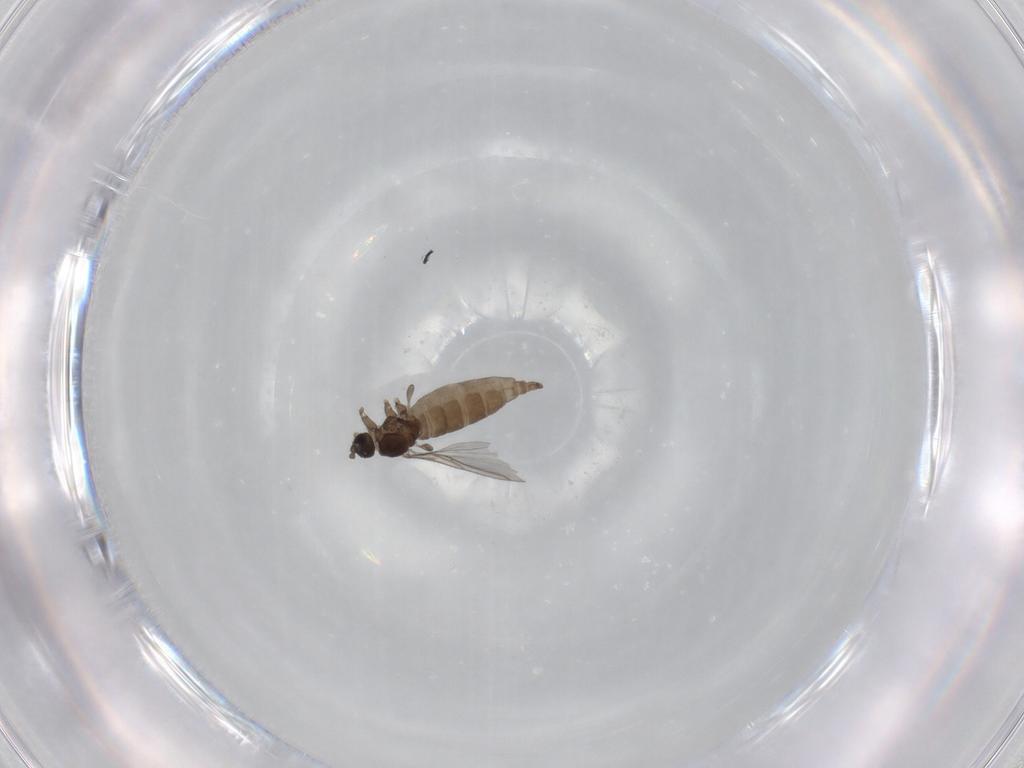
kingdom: Animalia
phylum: Arthropoda
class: Insecta
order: Diptera
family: Sciaridae
